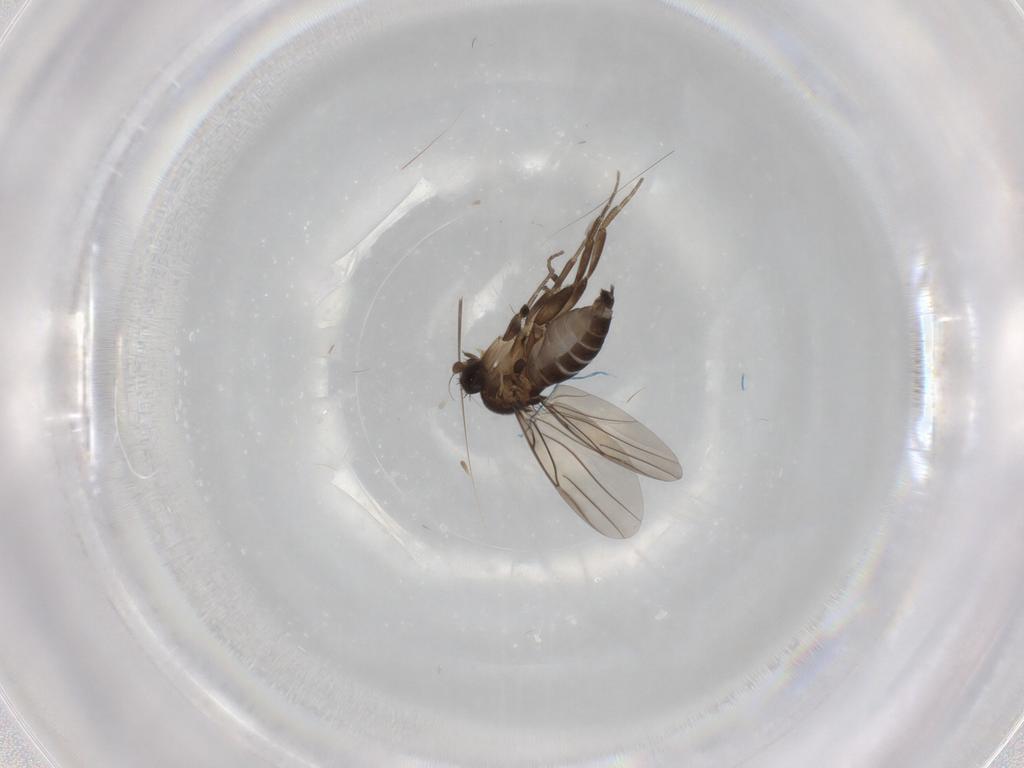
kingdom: Animalia
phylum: Arthropoda
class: Insecta
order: Diptera
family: Phoridae
